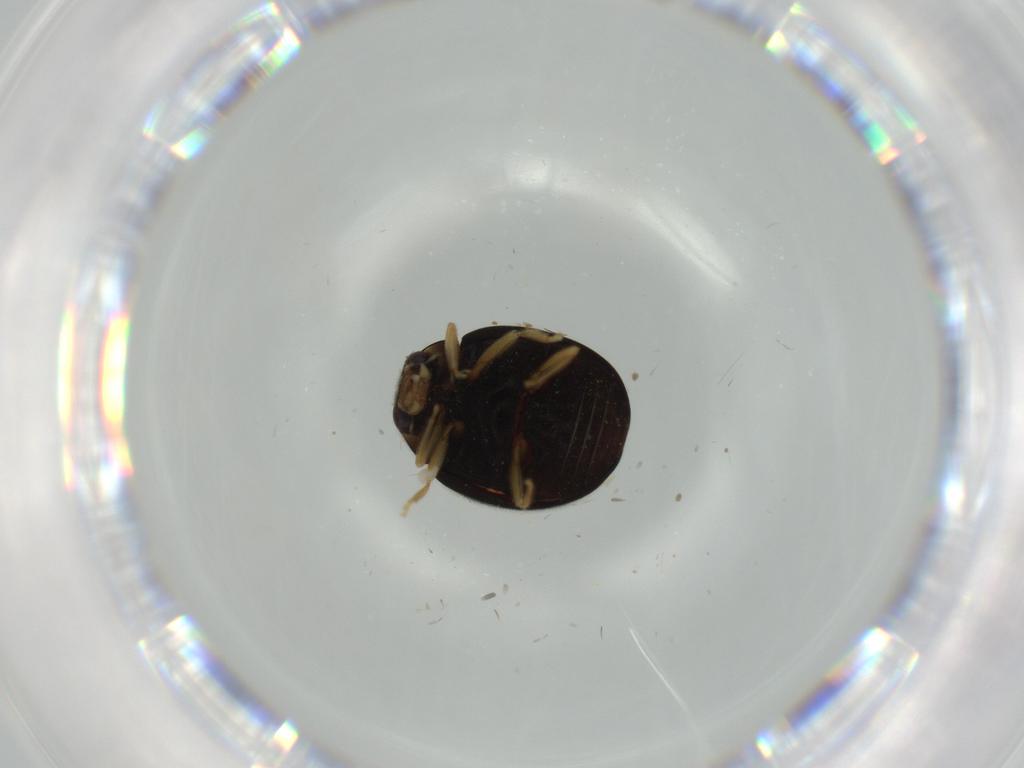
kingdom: Animalia
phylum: Arthropoda
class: Insecta
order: Coleoptera
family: Coccinellidae
